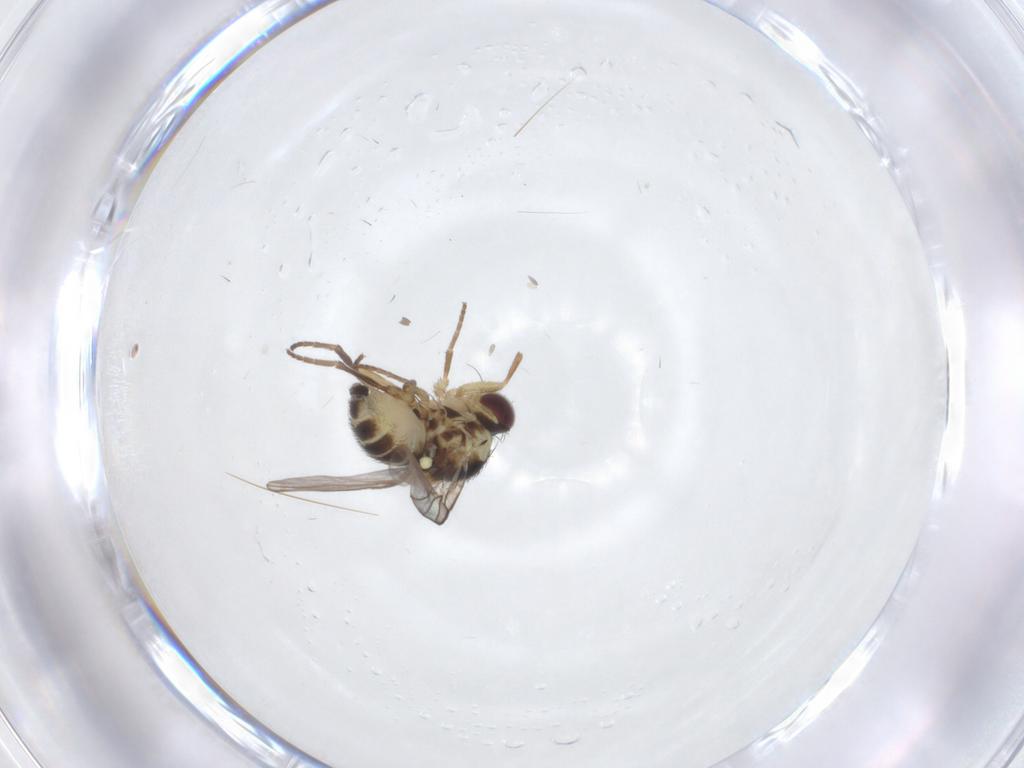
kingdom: Animalia
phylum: Arthropoda
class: Insecta
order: Diptera
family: Agromyzidae
